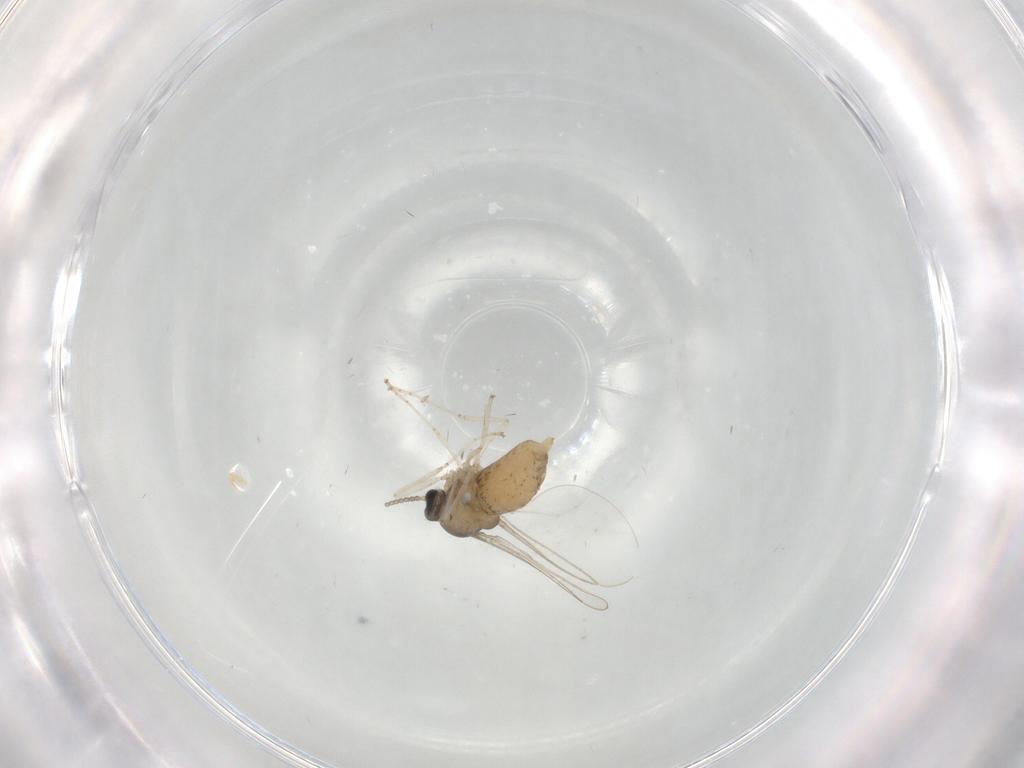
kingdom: Animalia
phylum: Arthropoda
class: Insecta
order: Diptera
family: Cecidomyiidae
